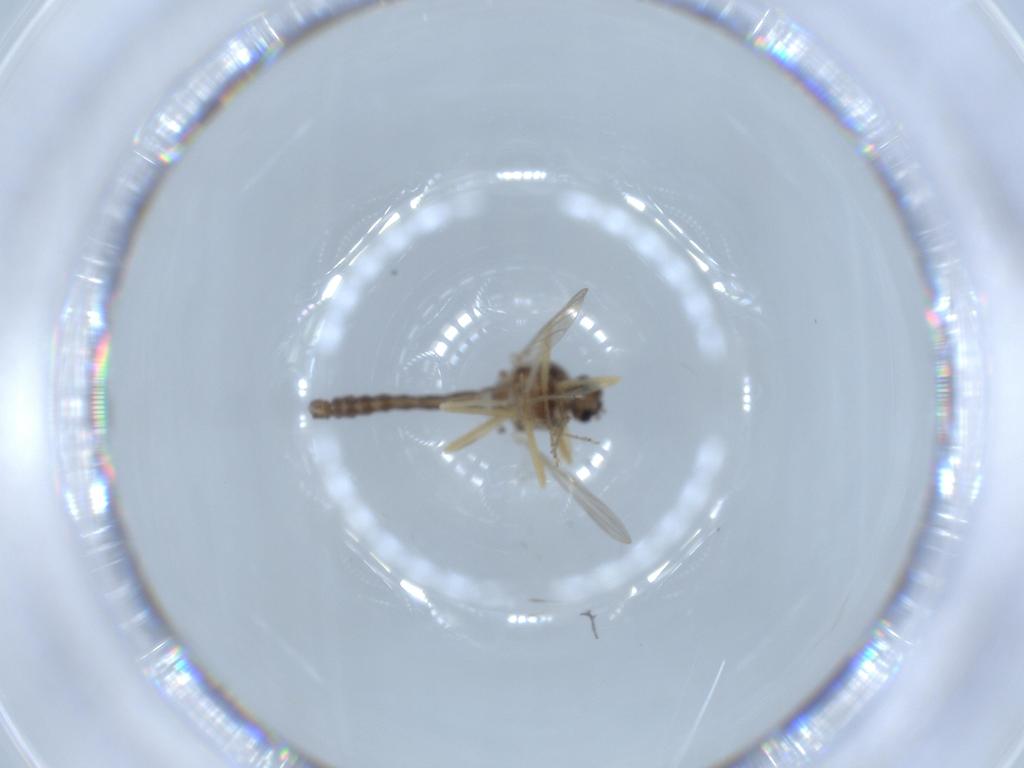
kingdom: Animalia
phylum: Arthropoda
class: Insecta
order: Diptera
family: Ceratopogonidae
